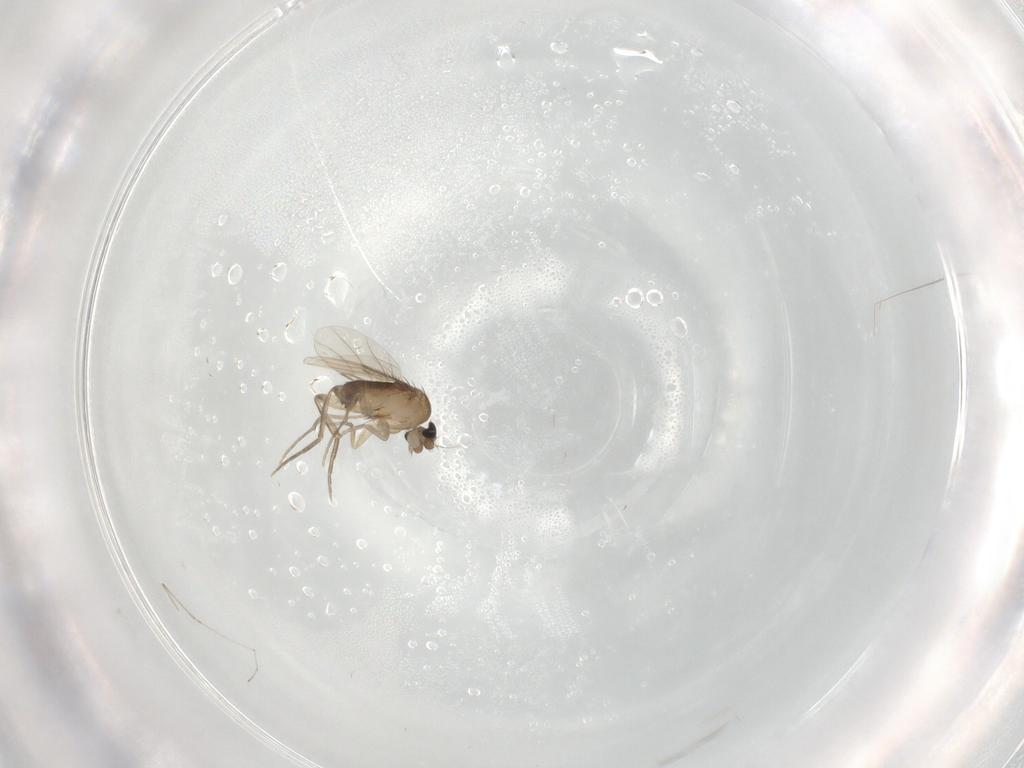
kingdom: Animalia
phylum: Arthropoda
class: Insecta
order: Diptera
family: Phoridae
